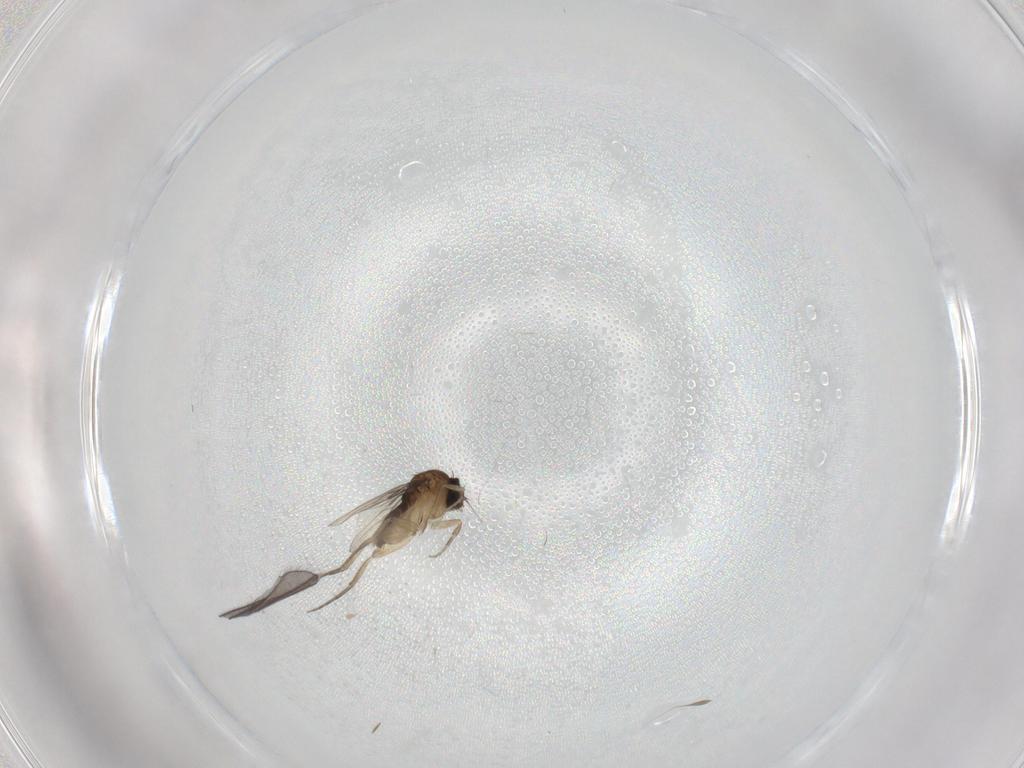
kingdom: Animalia
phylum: Arthropoda
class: Insecta
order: Diptera
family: Phoridae
